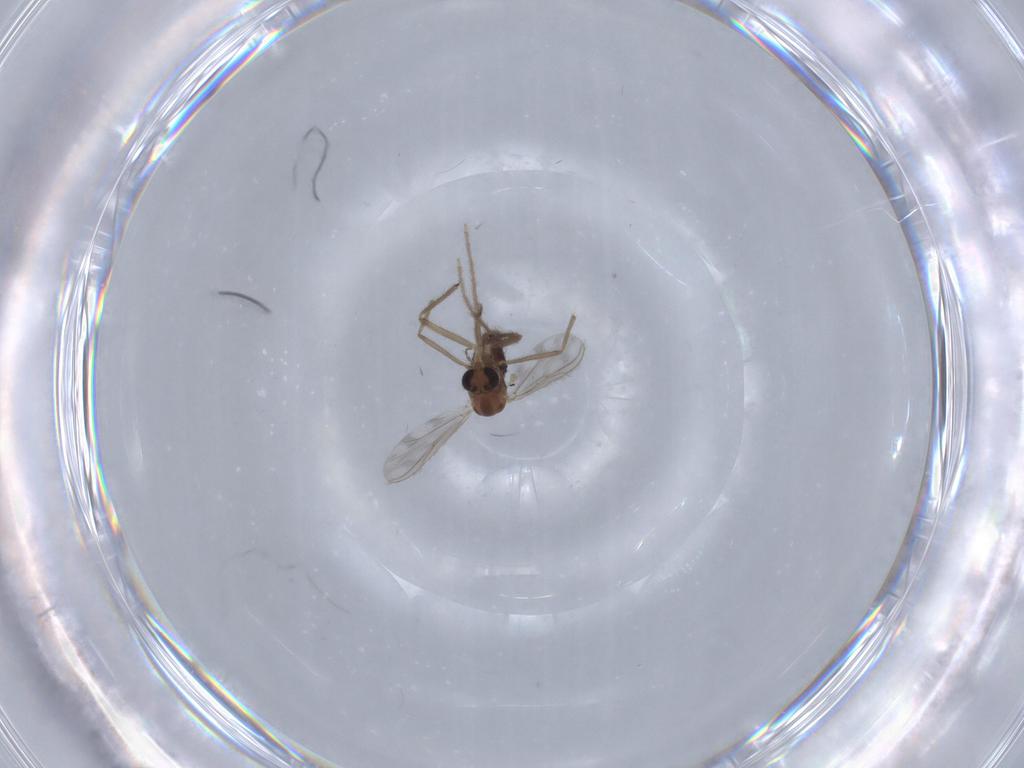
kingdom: Animalia
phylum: Arthropoda
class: Insecta
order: Diptera
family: Chironomidae
